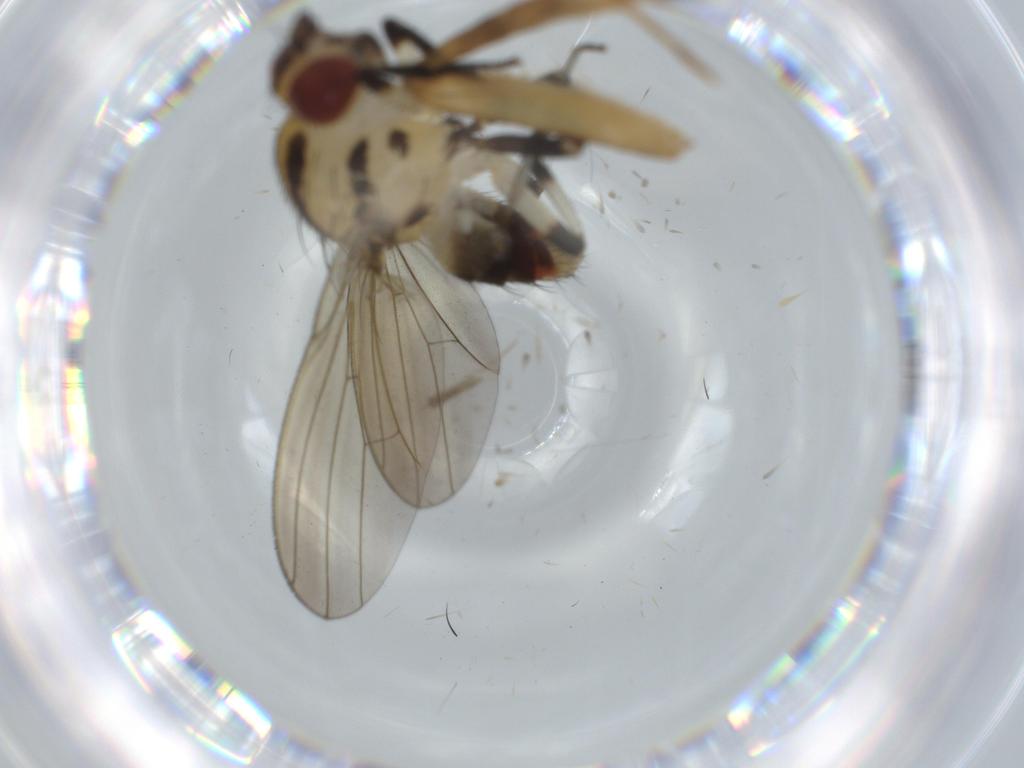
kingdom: Animalia
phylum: Arthropoda
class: Insecta
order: Diptera
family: Lauxaniidae
